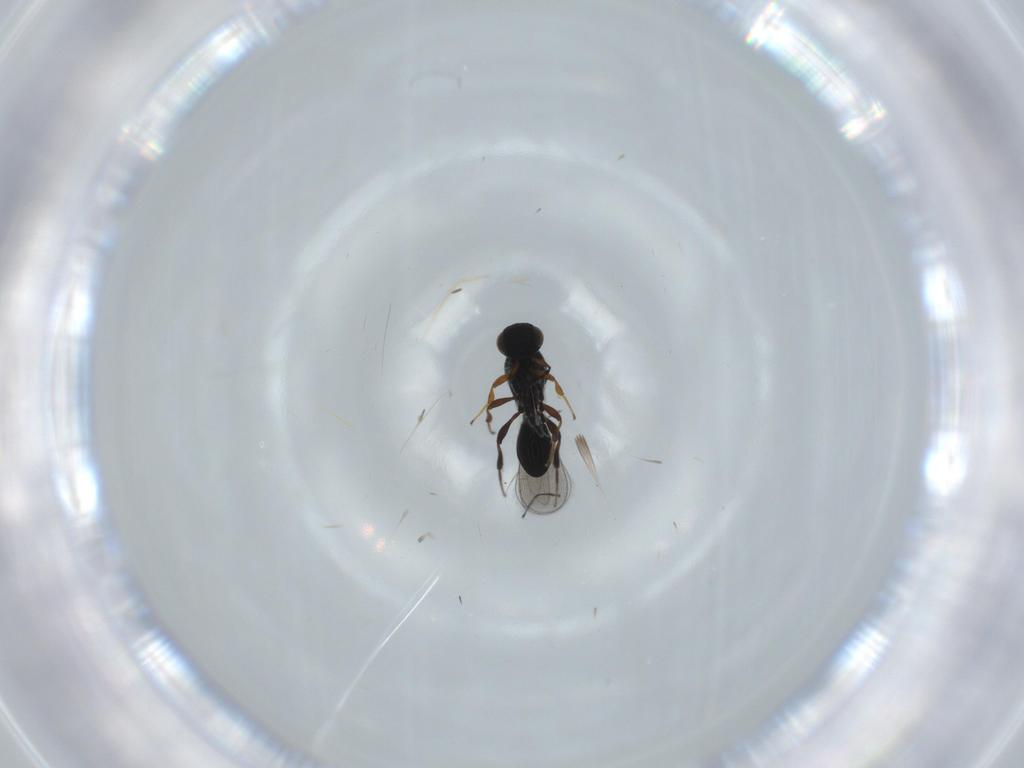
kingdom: Animalia
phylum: Arthropoda
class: Insecta
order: Hymenoptera
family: Platygastridae
